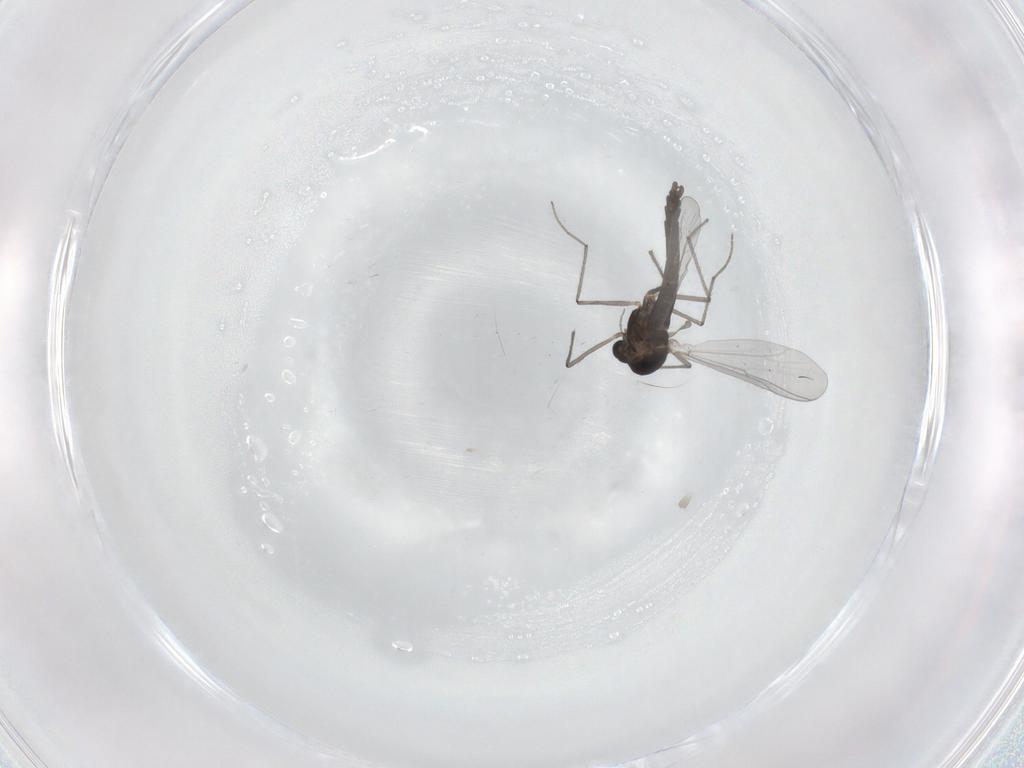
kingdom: Animalia
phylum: Arthropoda
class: Insecta
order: Diptera
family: Chironomidae
